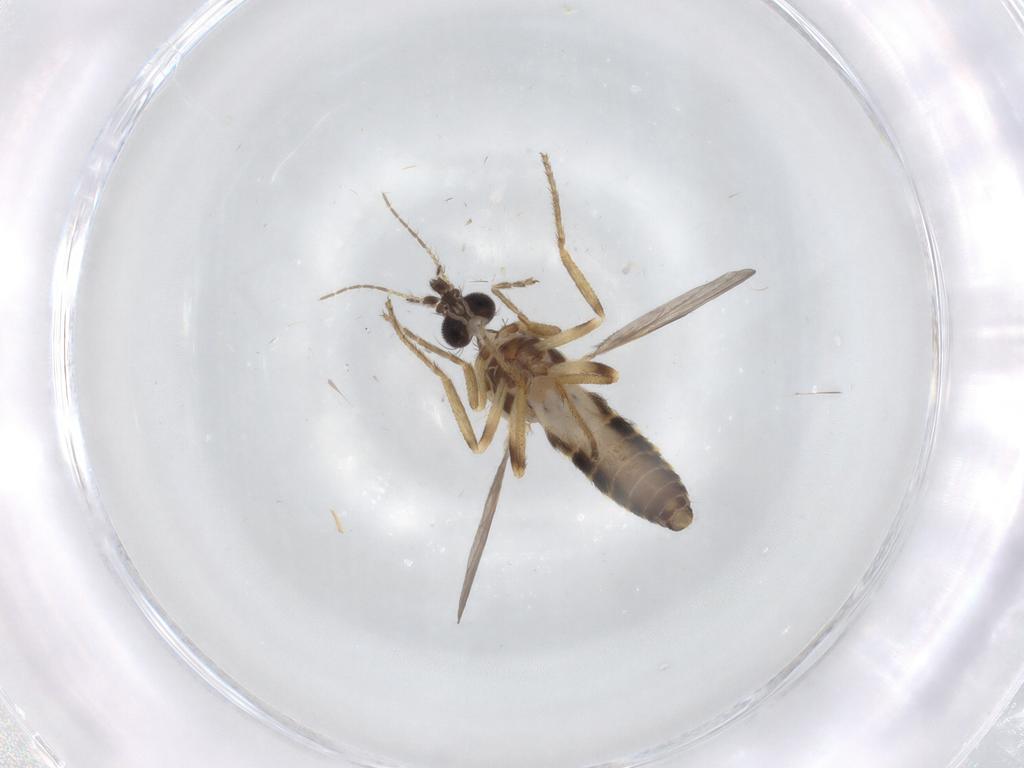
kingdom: Animalia
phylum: Arthropoda
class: Insecta
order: Diptera
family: Ceratopogonidae
